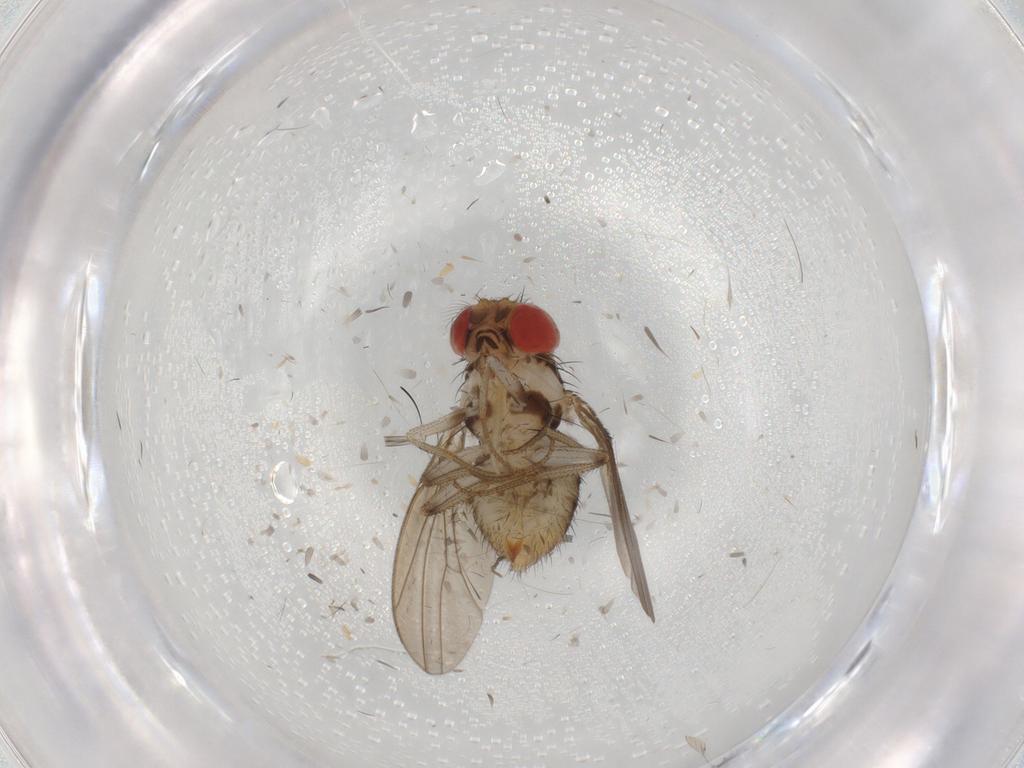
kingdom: Animalia
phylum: Arthropoda
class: Insecta
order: Diptera
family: Drosophilidae
